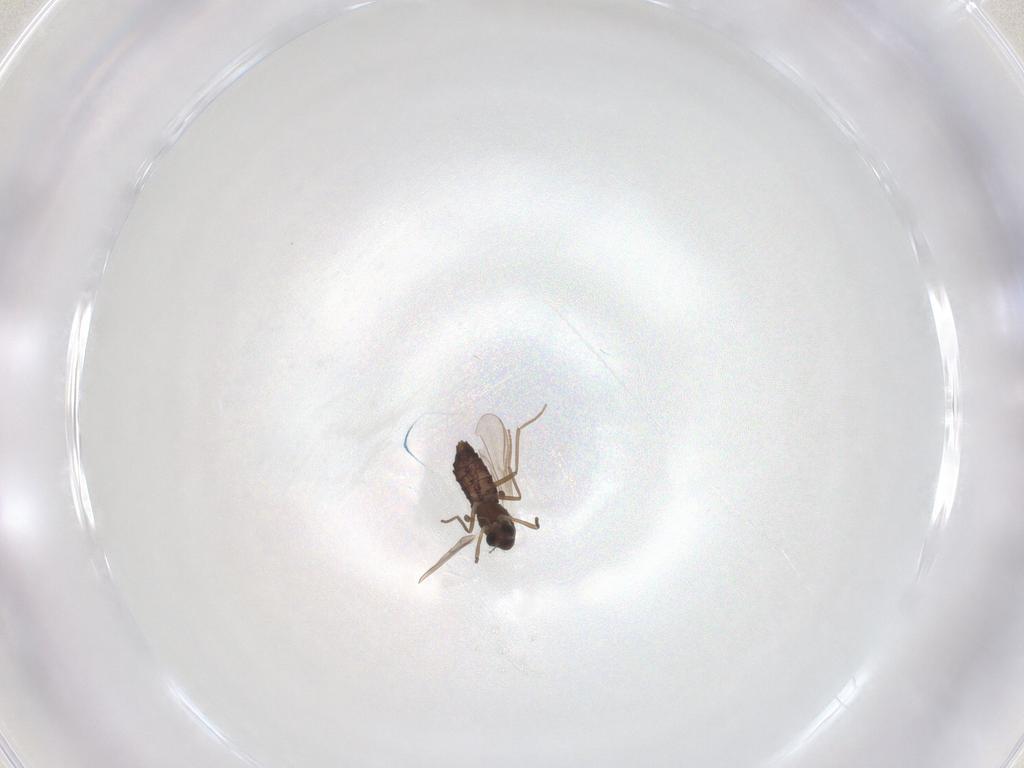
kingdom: Animalia
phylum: Arthropoda
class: Insecta
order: Diptera
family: Chironomidae
